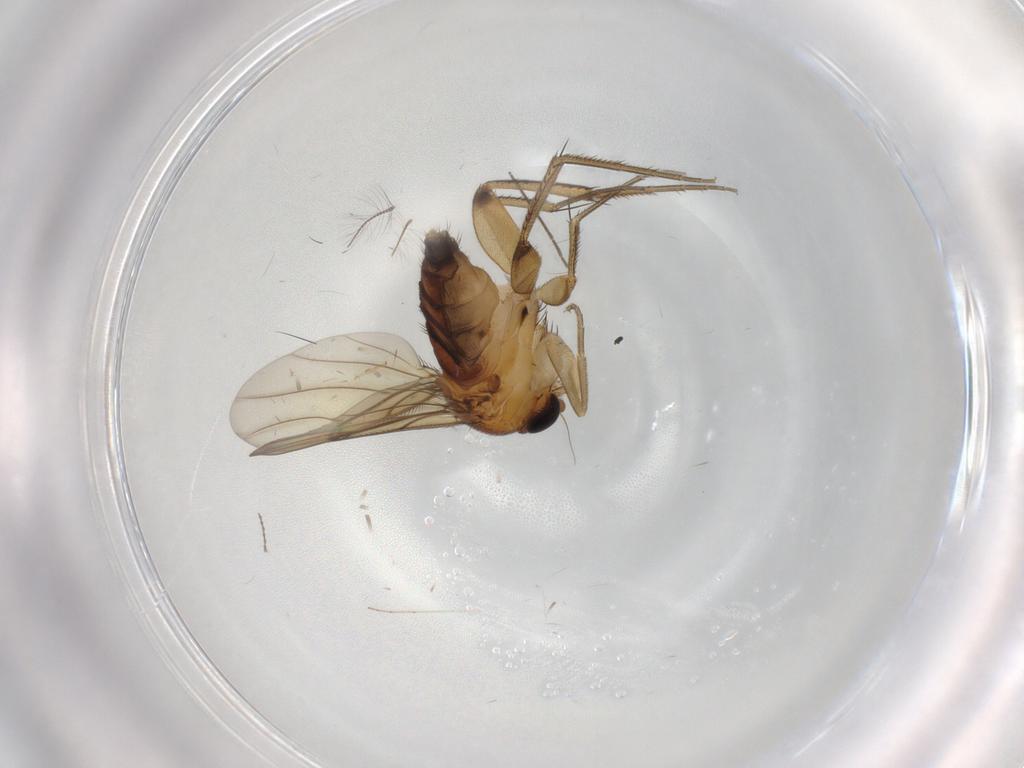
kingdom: Animalia
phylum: Arthropoda
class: Insecta
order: Diptera
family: Phoridae
